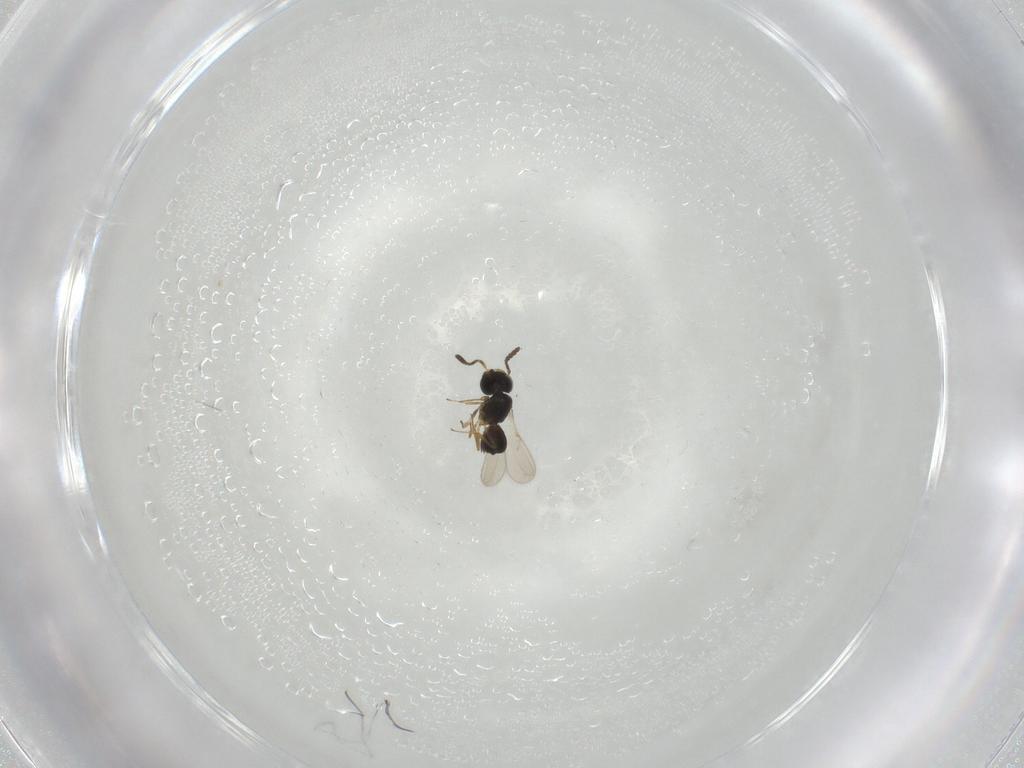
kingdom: Animalia
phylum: Arthropoda
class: Insecta
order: Hymenoptera
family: Scelionidae
